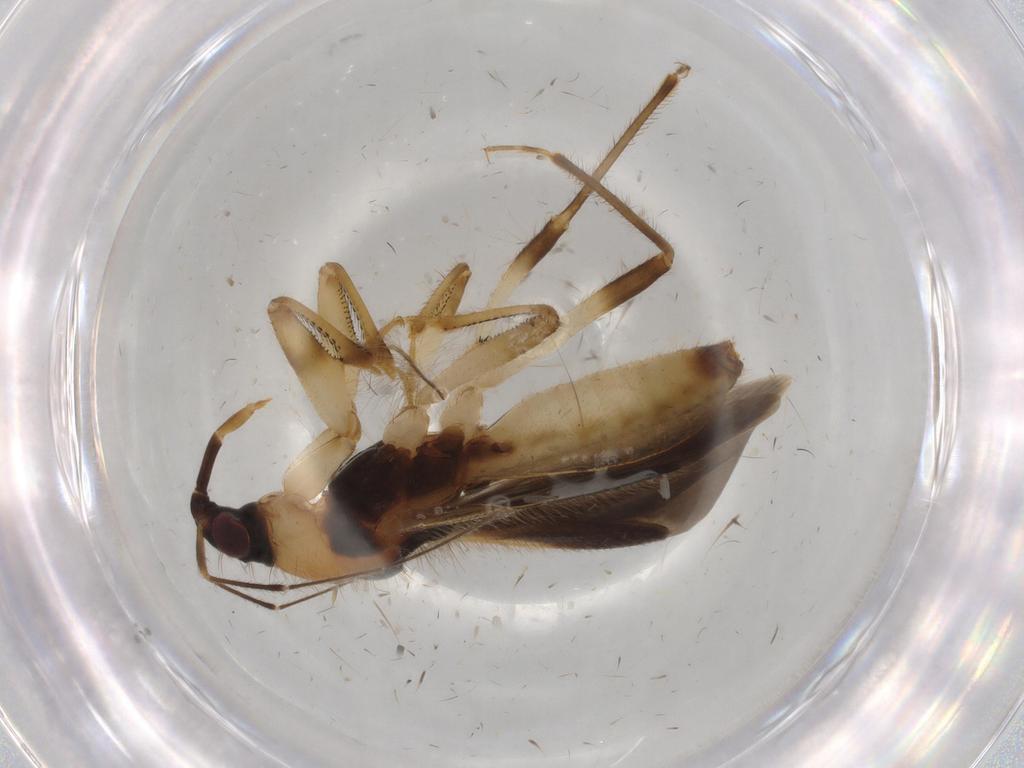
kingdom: Animalia
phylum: Arthropoda
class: Insecta
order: Hemiptera
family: Nabidae
